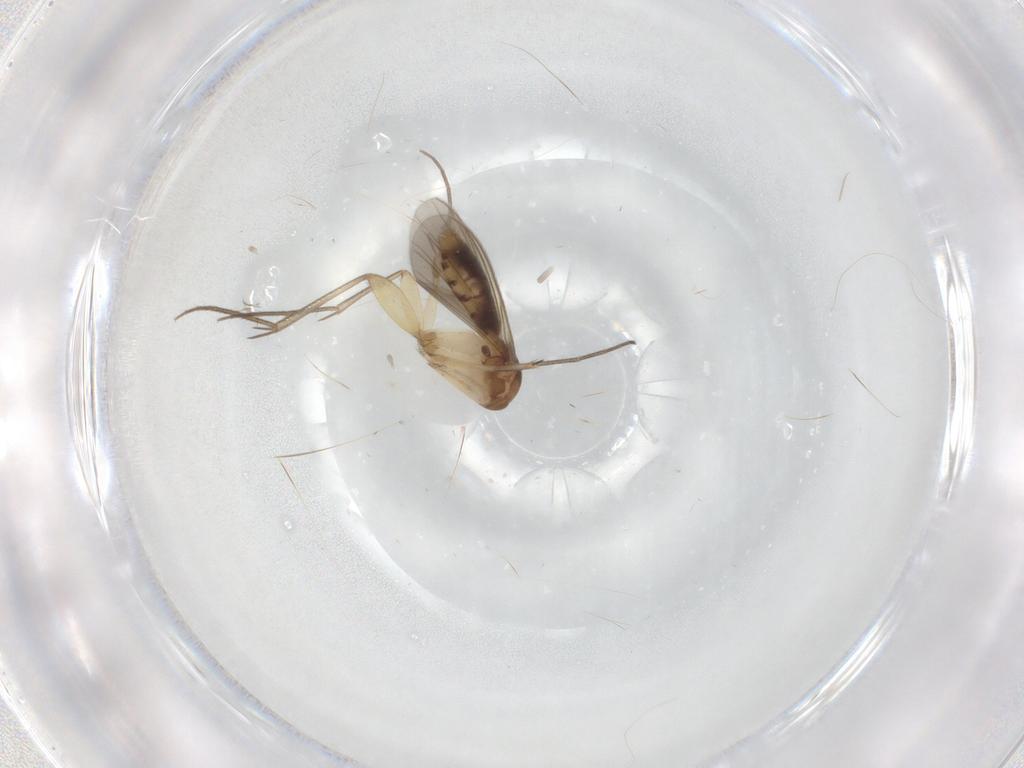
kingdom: Animalia
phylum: Arthropoda
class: Insecta
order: Diptera
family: Mycetophilidae
